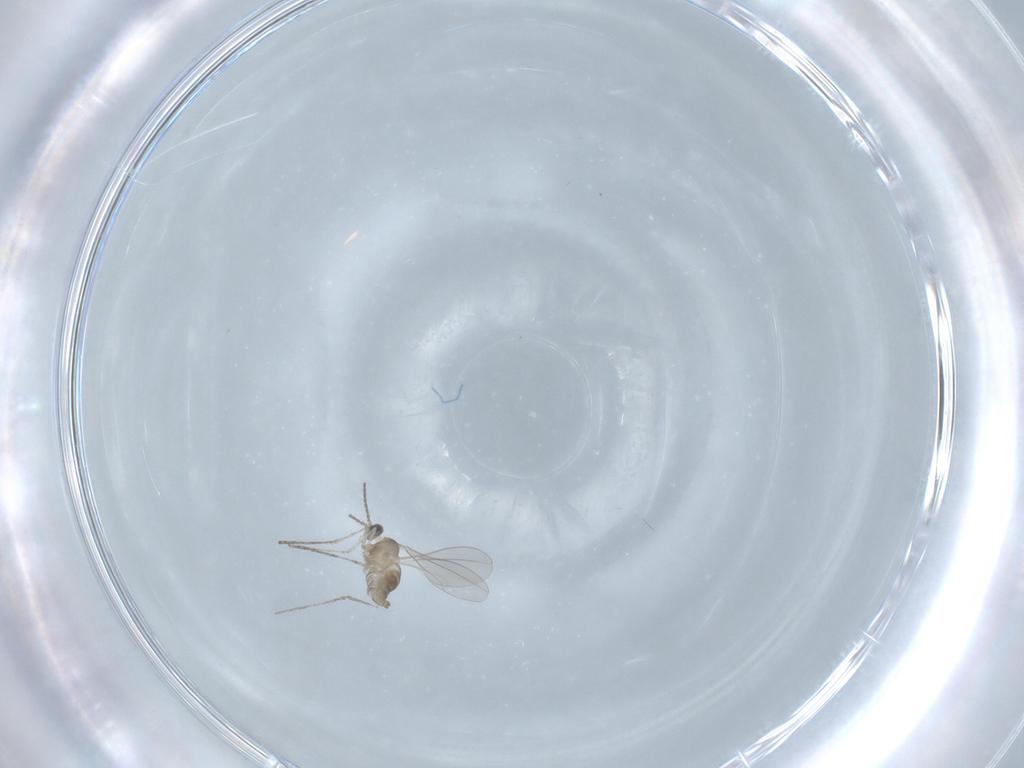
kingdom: Animalia
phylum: Arthropoda
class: Insecta
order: Diptera
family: Cecidomyiidae
